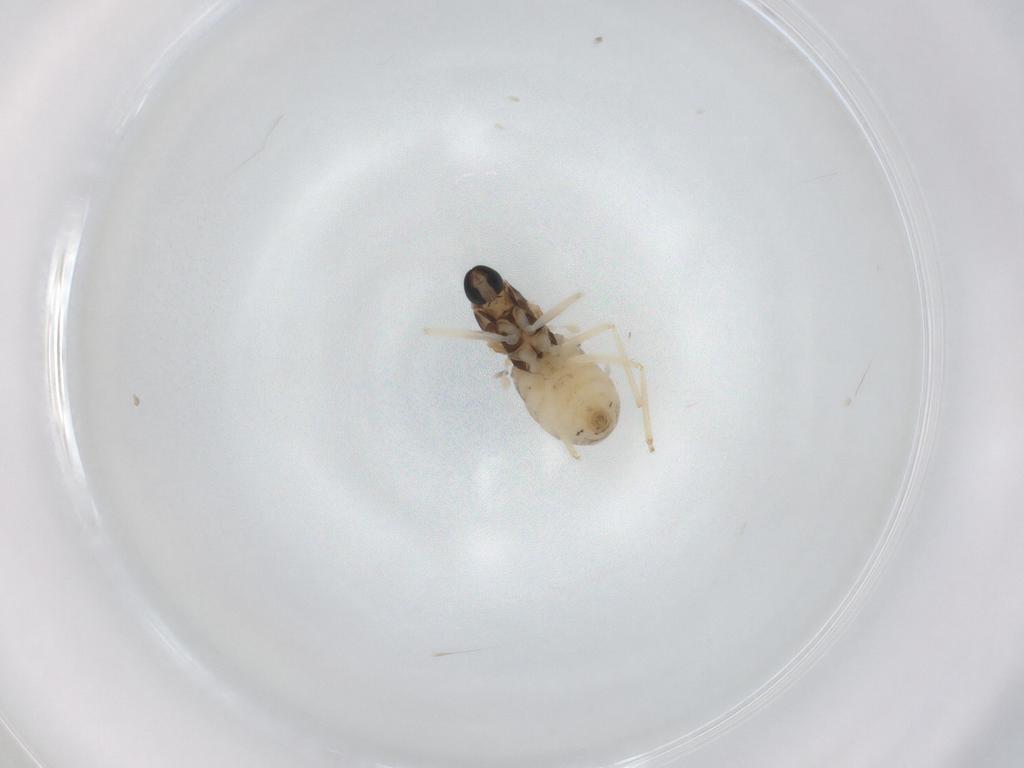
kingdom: Animalia
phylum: Arthropoda
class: Insecta
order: Diptera
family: Cecidomyiidae
